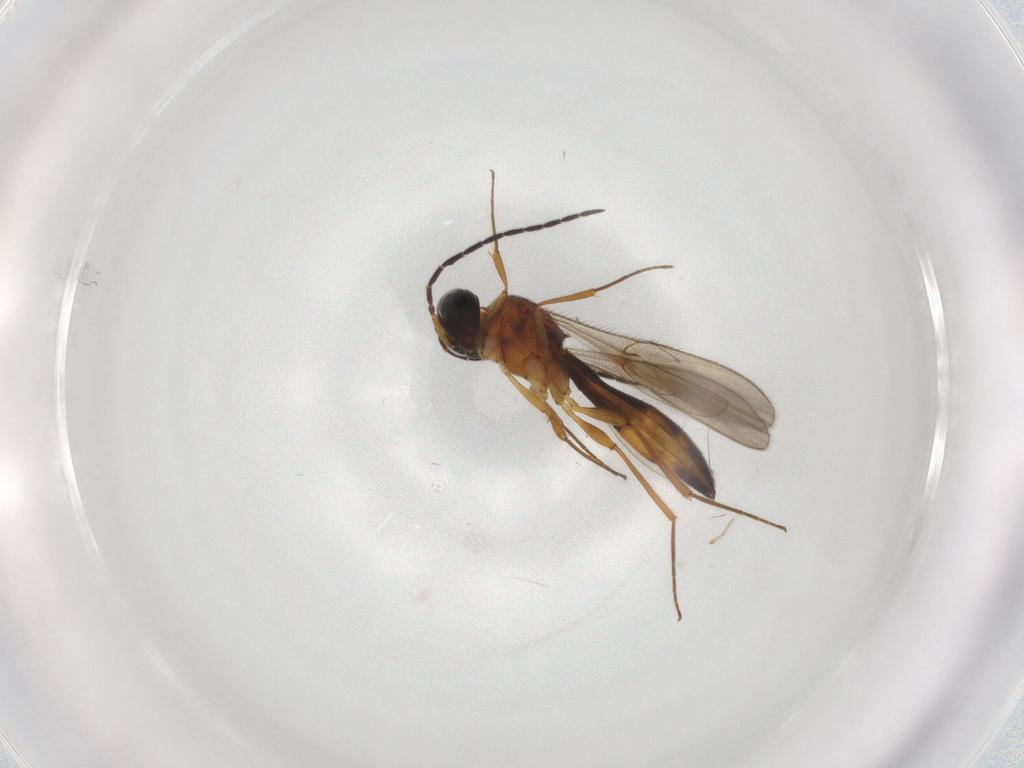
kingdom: Animalia
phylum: Arthropoda
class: Insecta
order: Hymenoptera
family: Scelionidae
